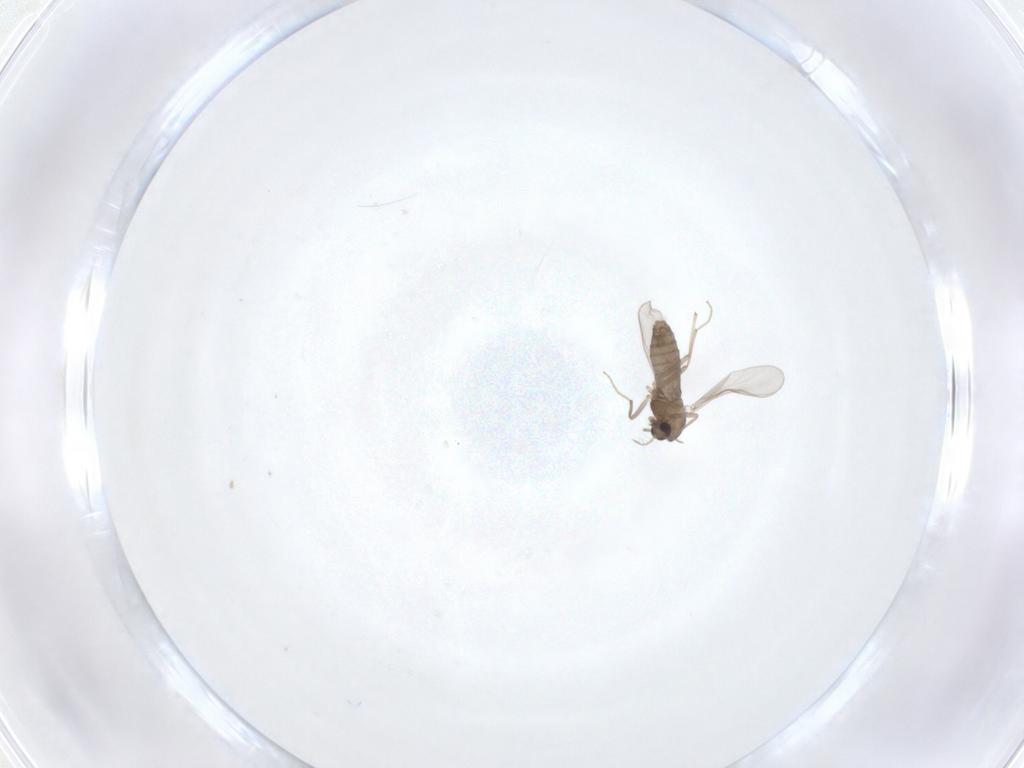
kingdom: Animalia
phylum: Arthropoda
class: Insecta
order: Diptera
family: Chironomidae
